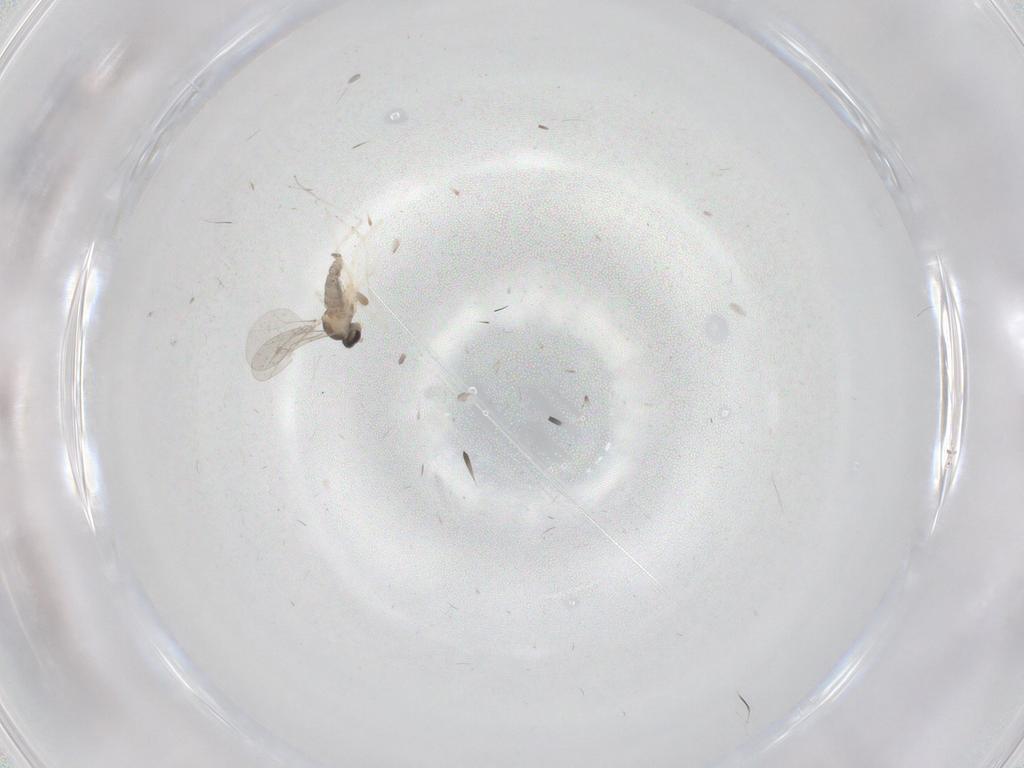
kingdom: Animalia
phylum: Arthropoda
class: Insecta
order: Diptera
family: Cecidomyiidae
